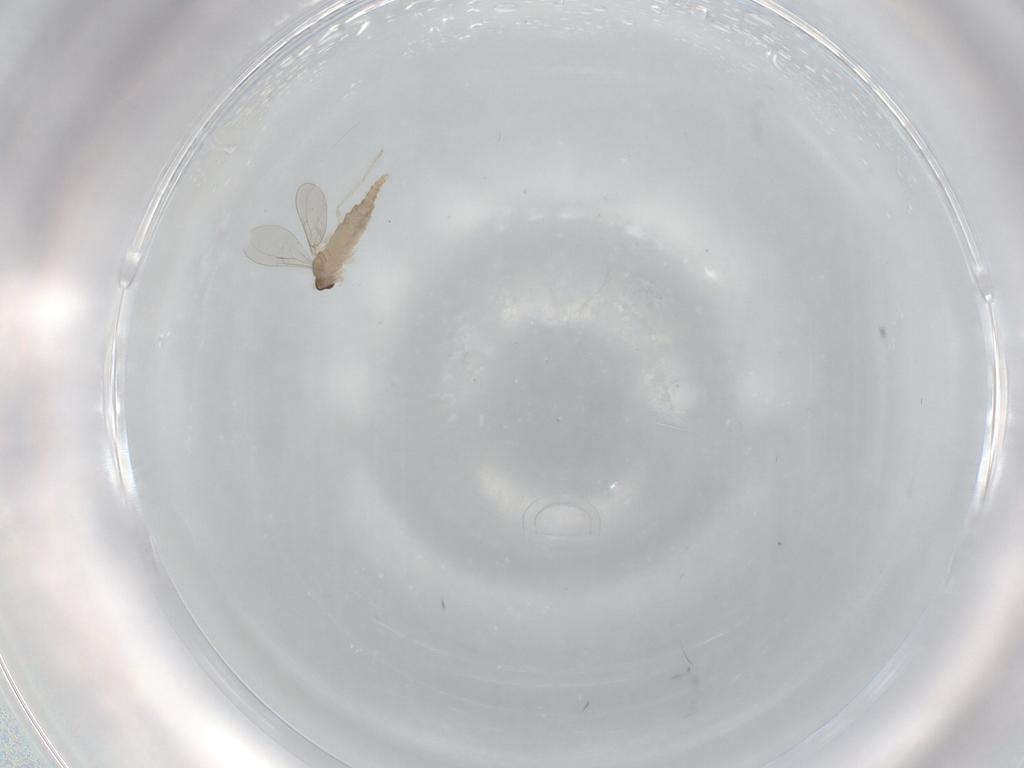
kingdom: Animalia
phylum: Arthropoda
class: Insecta
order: Diptera
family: Cecidomyiidae
